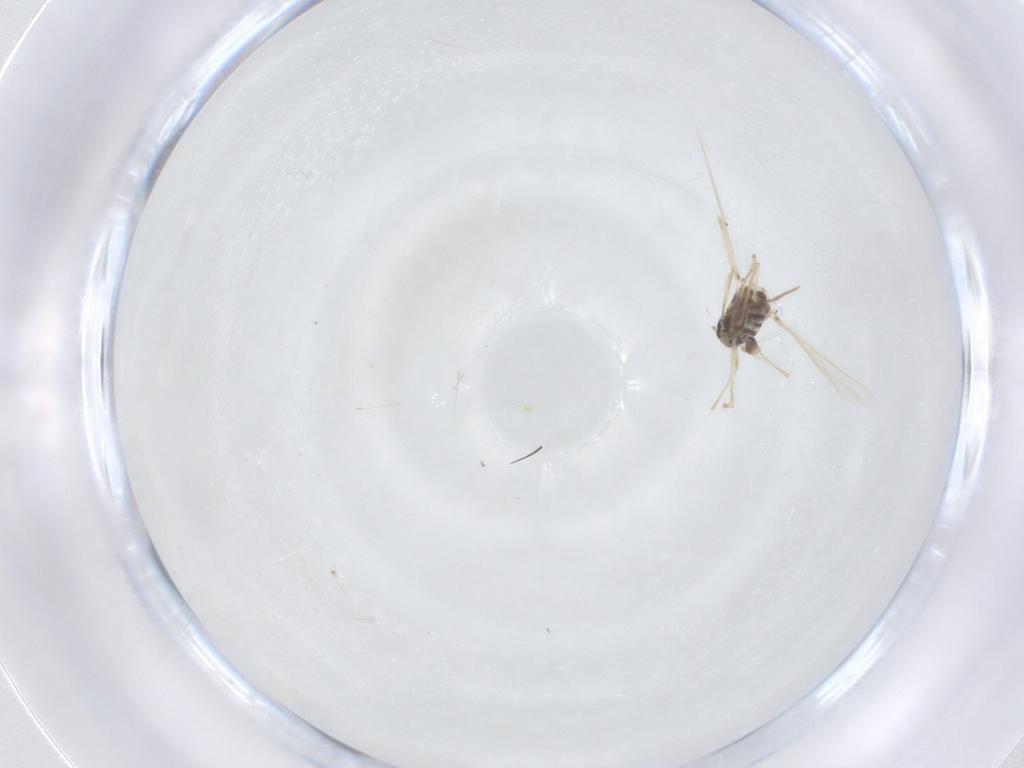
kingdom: Animalia
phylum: Arthropoda
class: Insecta
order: Diptera
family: Chironomidae
